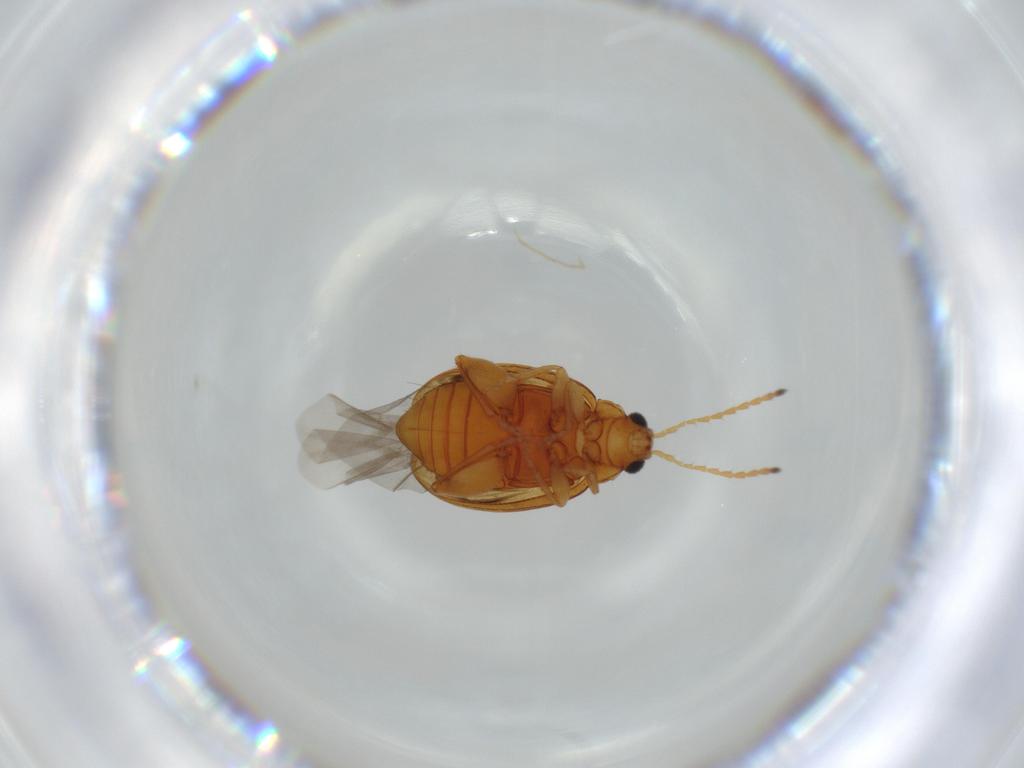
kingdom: Animalia
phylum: Arthropoda
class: Insecta
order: Coleoptera
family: Chrysomelidae
